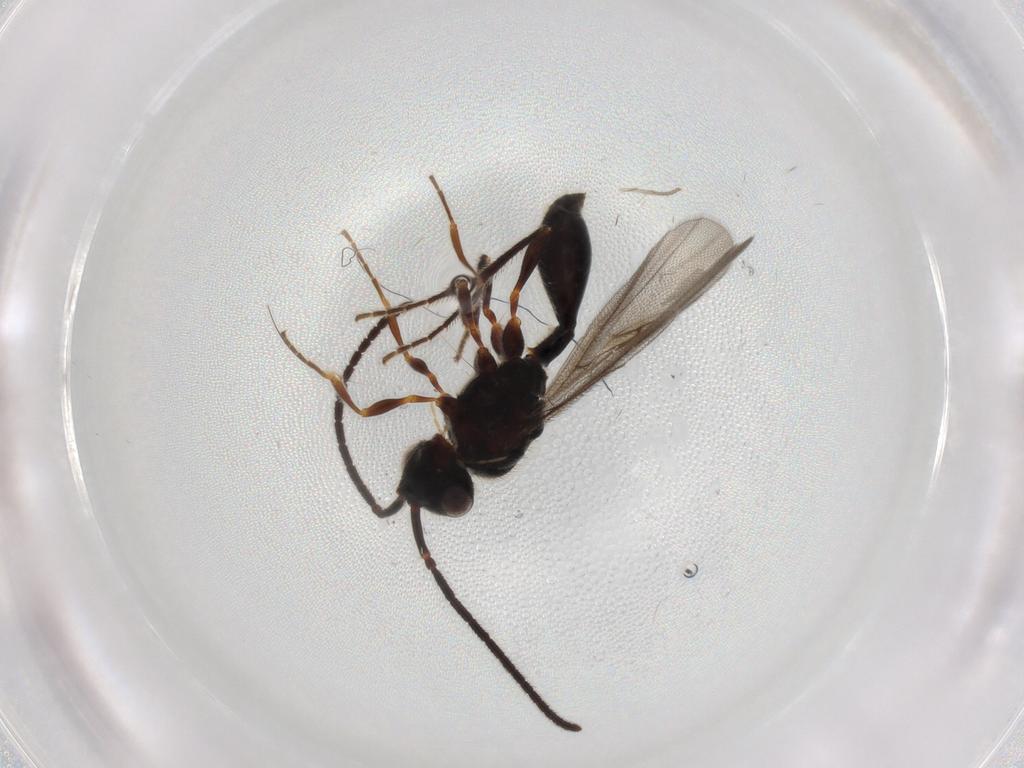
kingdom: Animalia
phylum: Arthropoda
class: Insecta
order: Hymenoptera
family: Diapriidae
